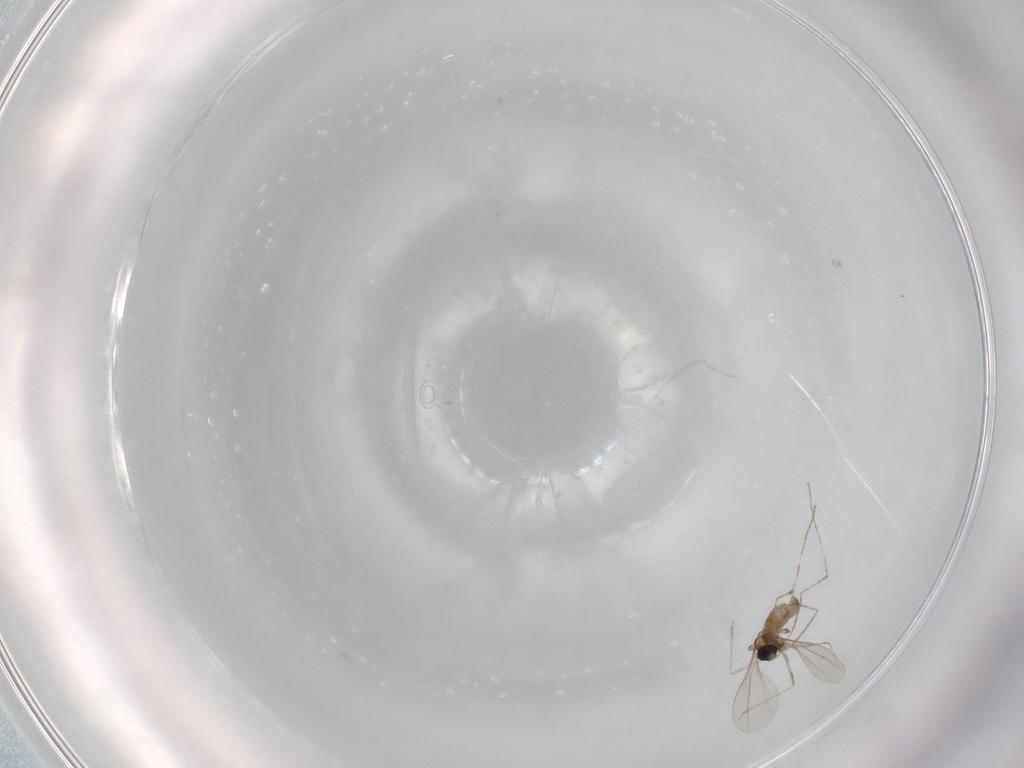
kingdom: Animalia
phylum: Arthropoda
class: Insecta
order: Diptera
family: Cecidomyiidae
